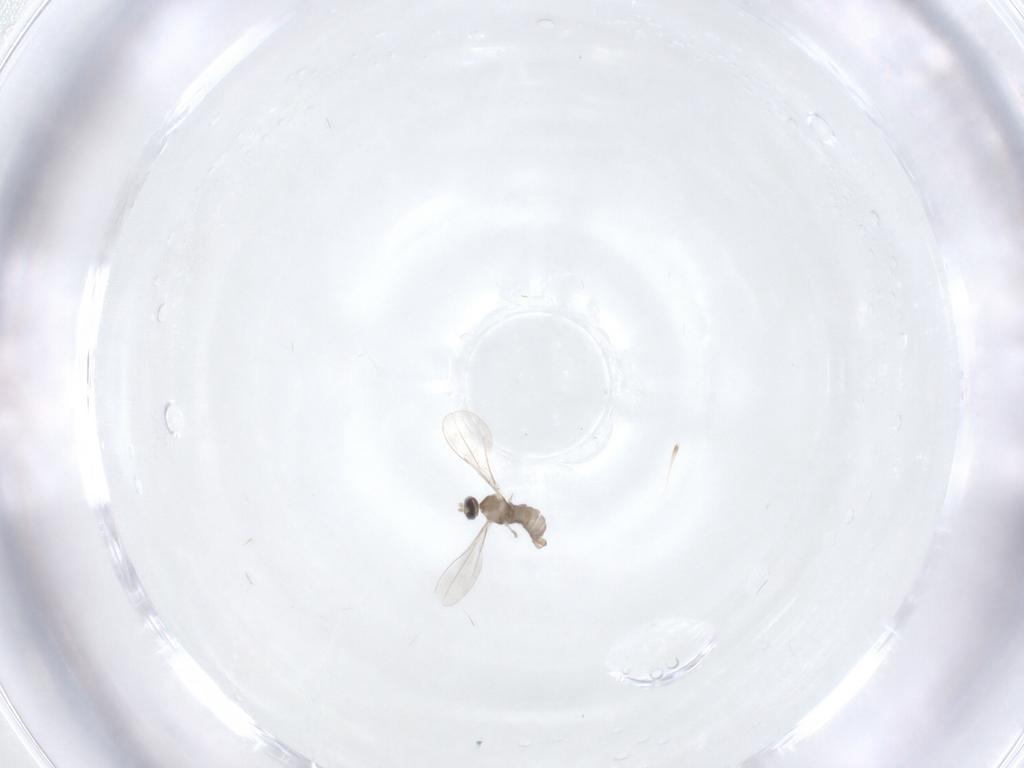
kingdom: Animalia
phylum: Arthropoda
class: Insecta
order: Diptera
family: Cecidomyiidae
